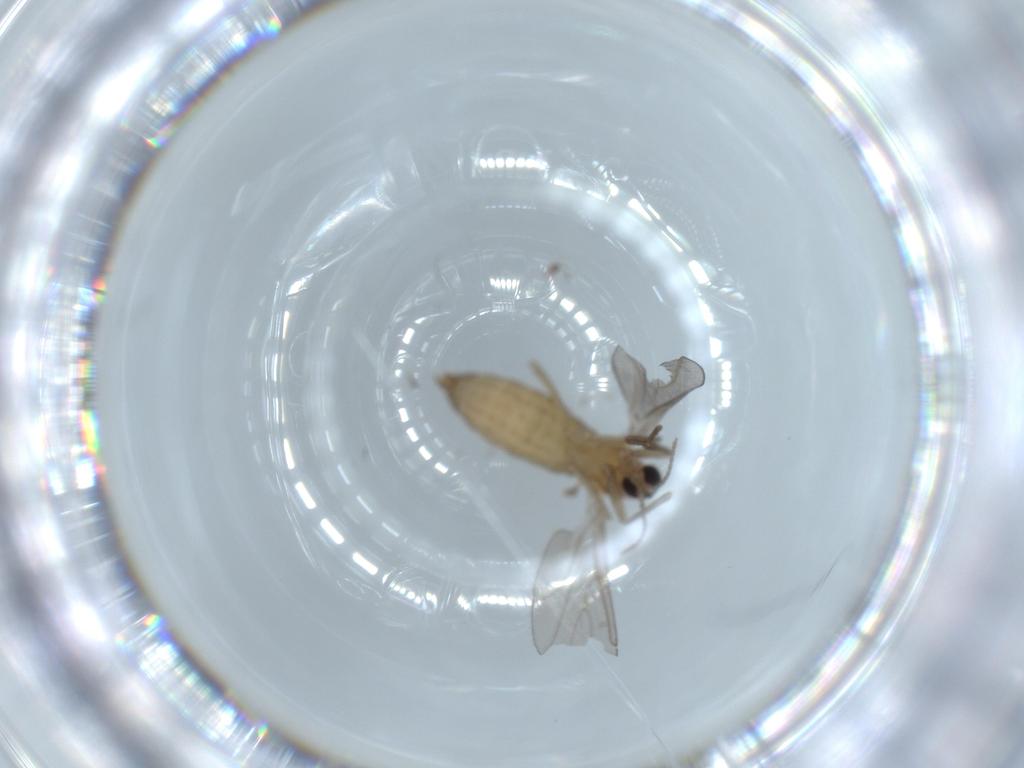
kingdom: Animalia
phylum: Arthropoda
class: Insecta
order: Diptera
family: Cecidomyiidae
